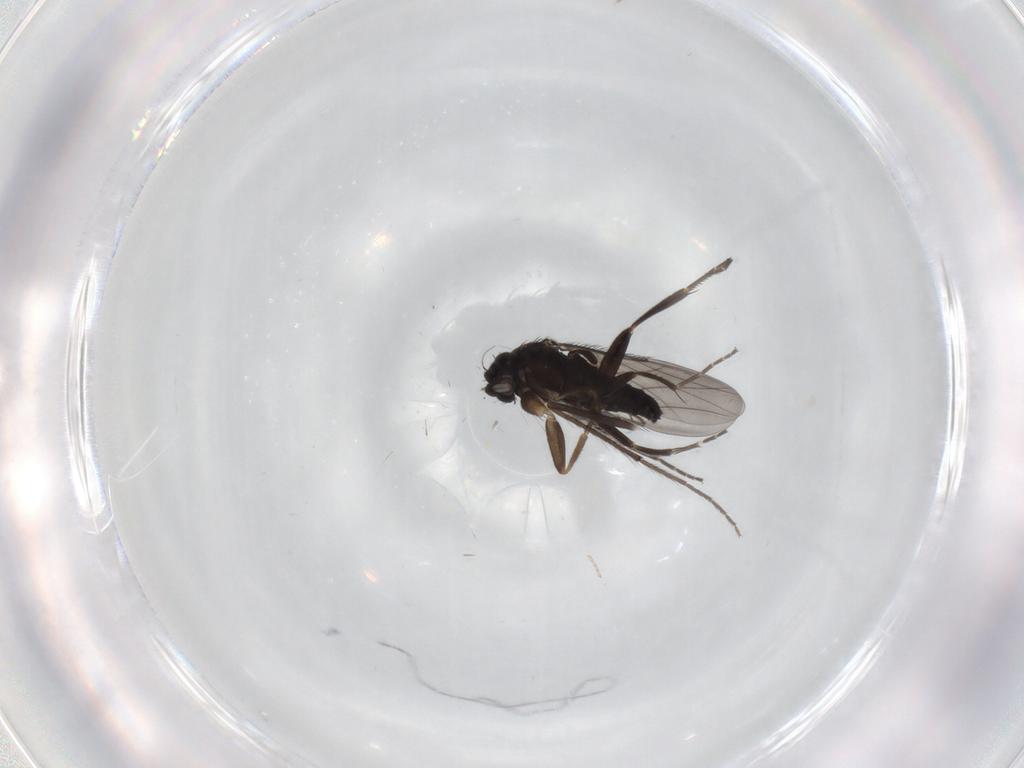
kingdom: Animalia
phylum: Arthropoda
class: Insecta
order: Diptera
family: Phoridae
